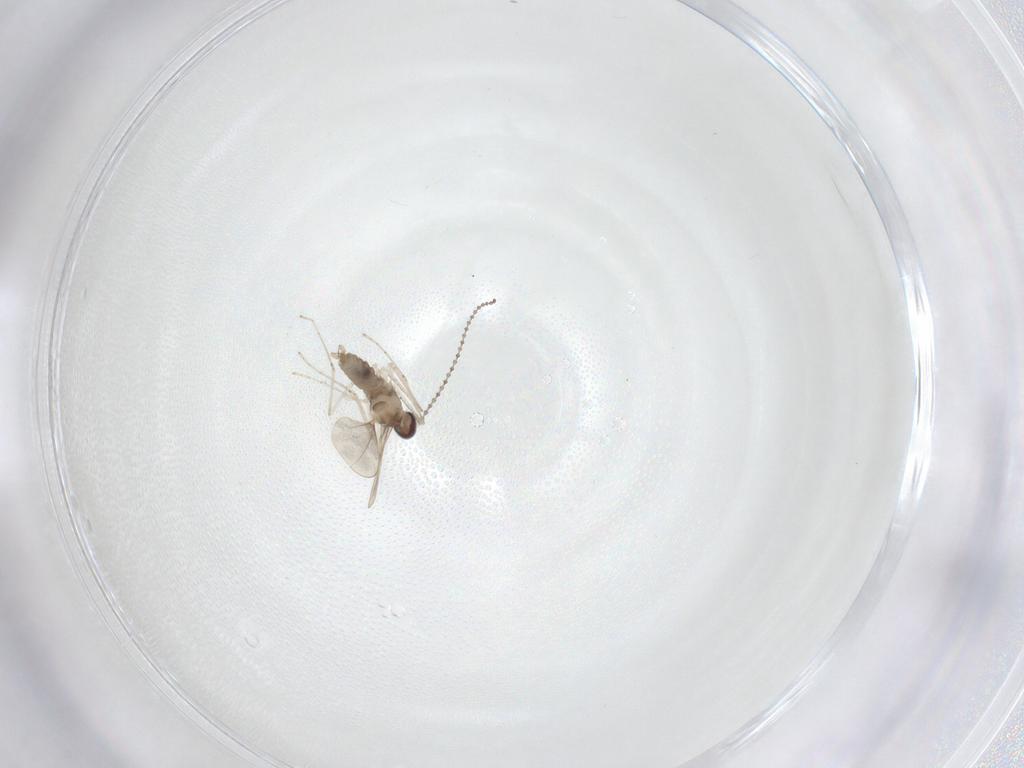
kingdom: Animalia
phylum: Arthropoda
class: Insecta
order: Diptera
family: Cecidomyiidae
